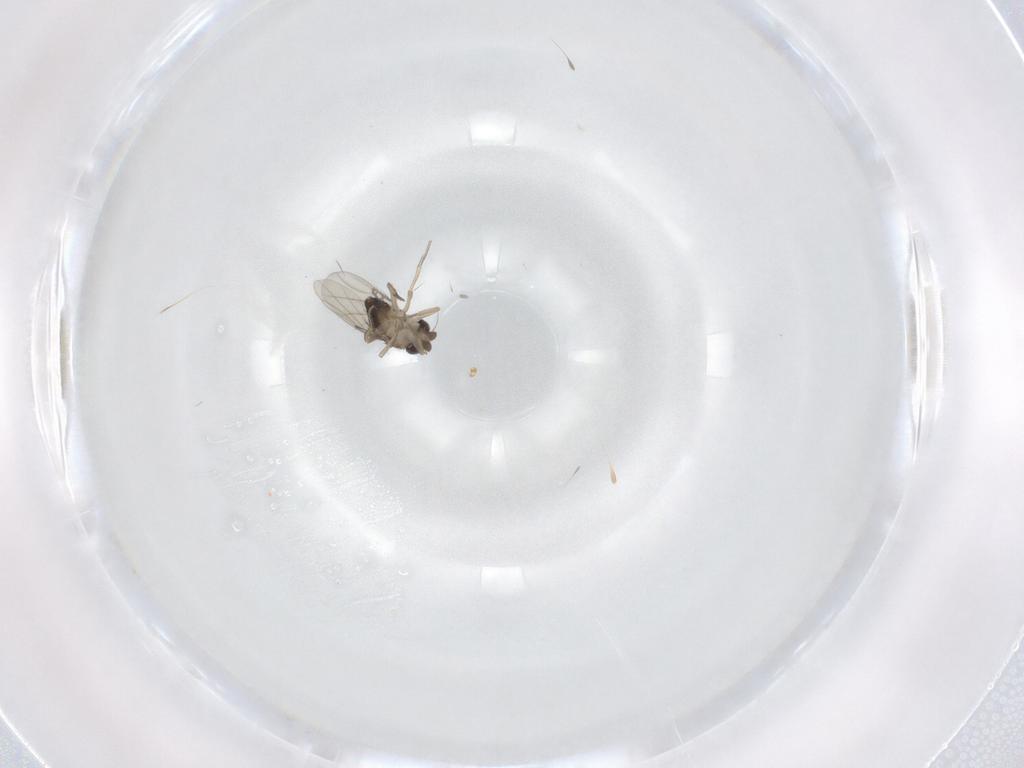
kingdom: Animalia
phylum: Arthropoda
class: Insecta
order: Diptera
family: Phoridae
